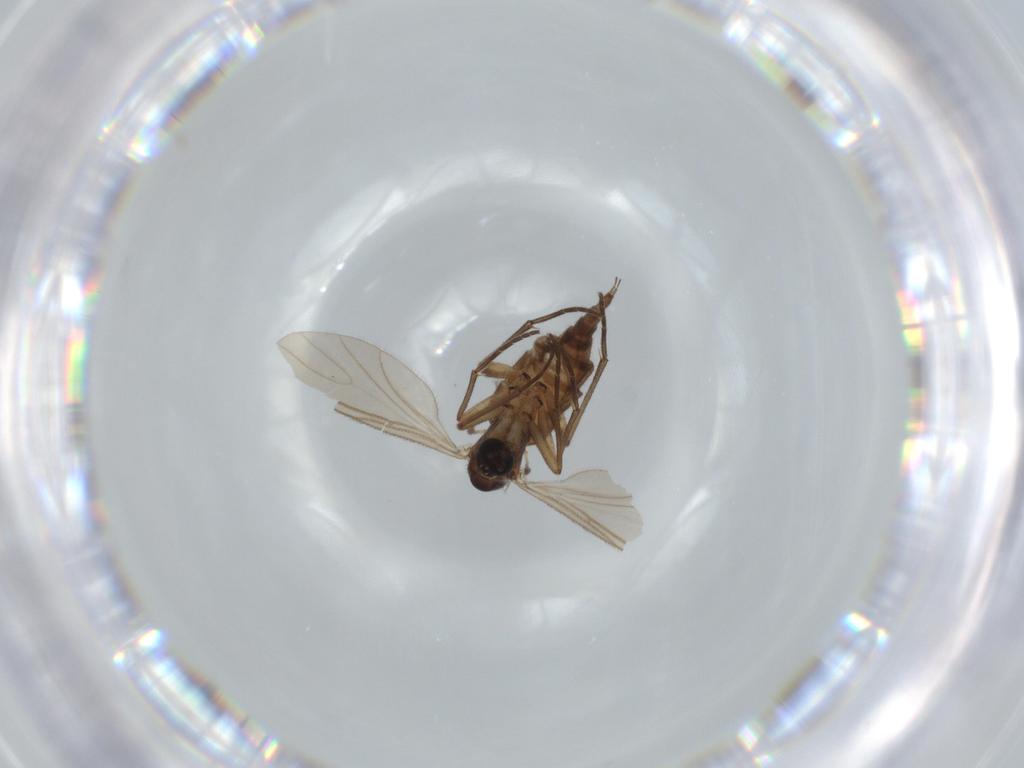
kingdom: Animalia
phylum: Arthropoda
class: Insecta
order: Diptera
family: Sciaridae
